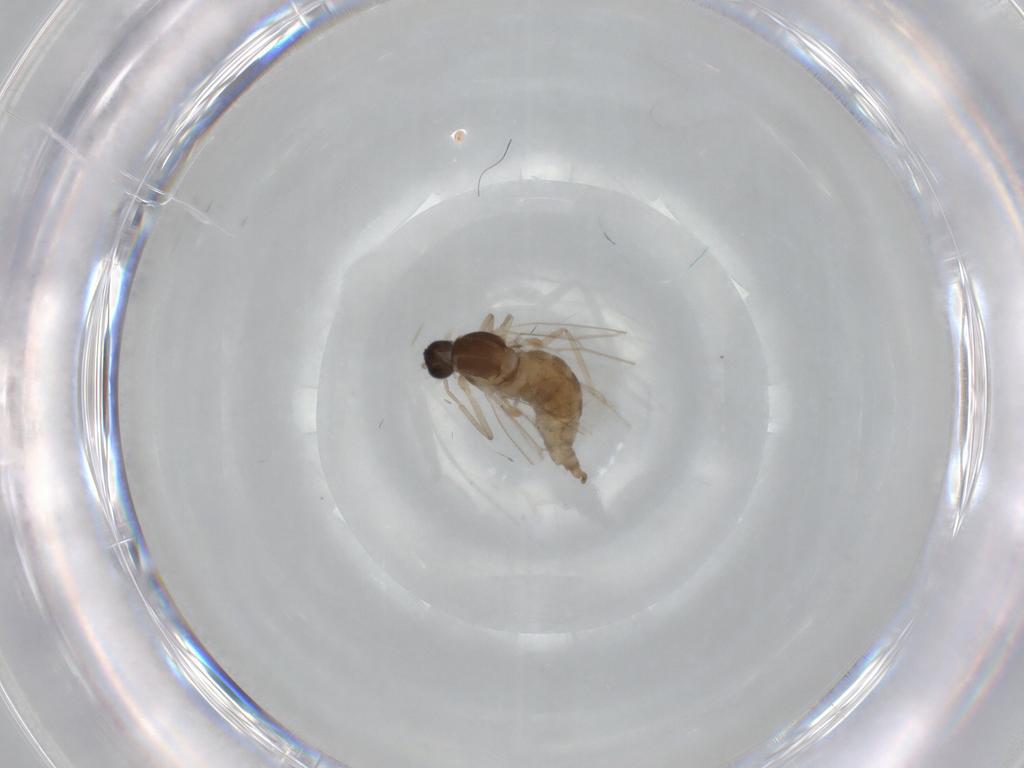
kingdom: Animalia
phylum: Arthropoda
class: Insecta
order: Diptera
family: Cecidomyiidae
